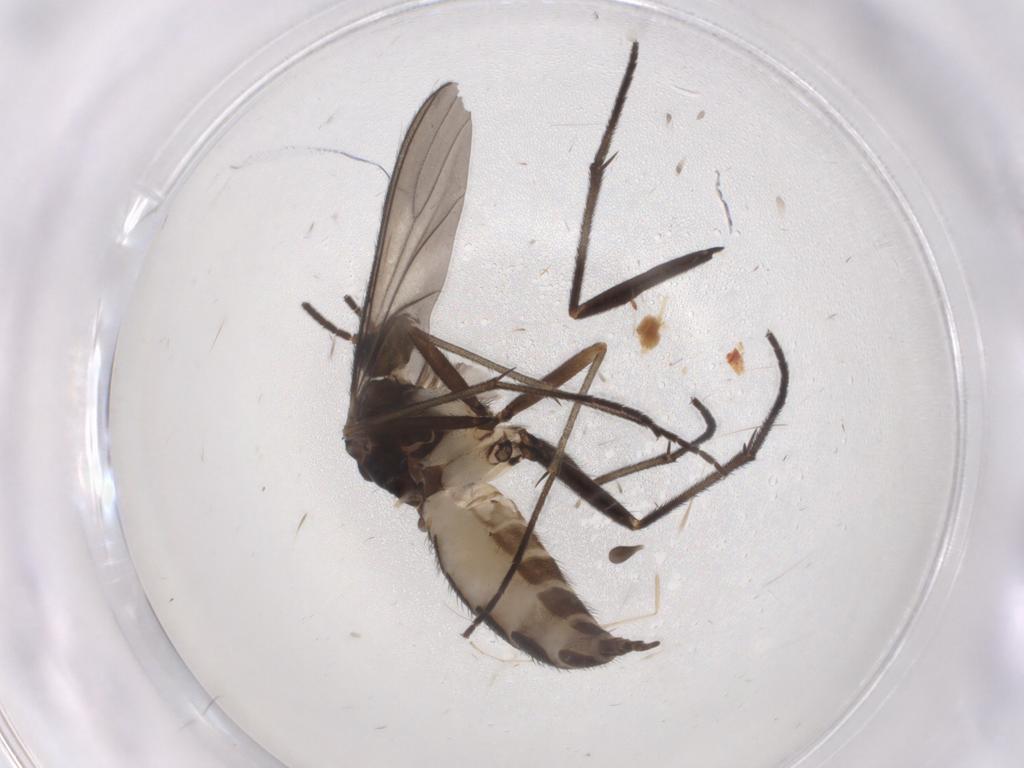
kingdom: Animalia
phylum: Arthropoda
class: Insecta
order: Diptera
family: Sciaridae
